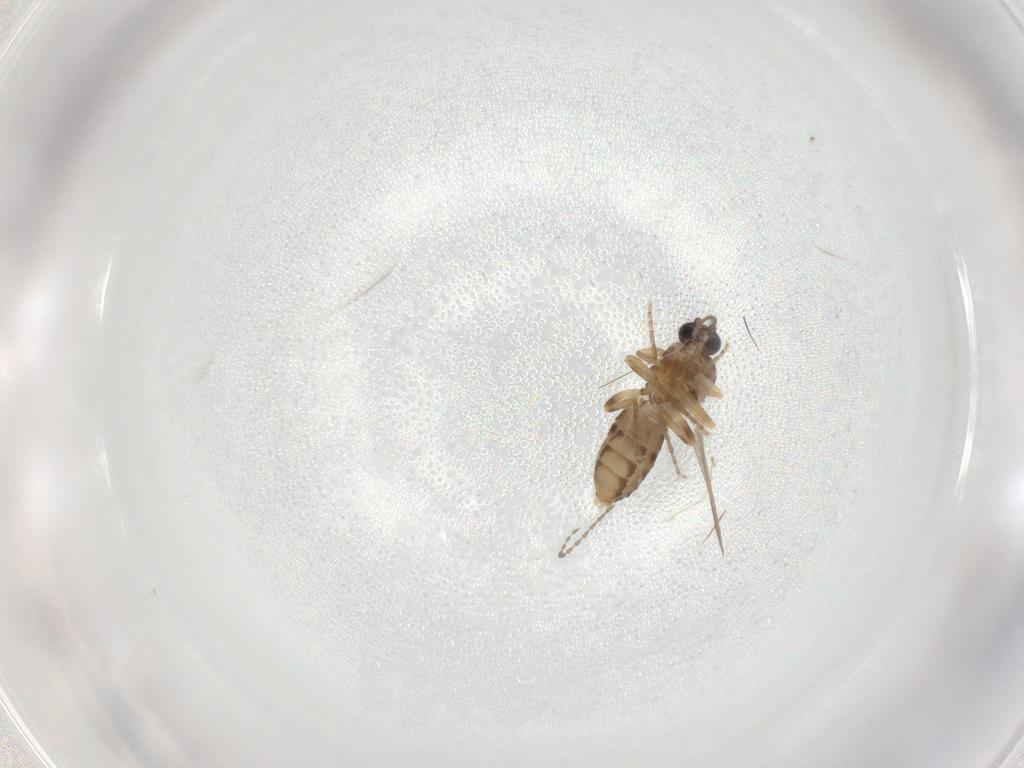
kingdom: Animalia
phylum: Arthropoda
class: Insecta
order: Diptera
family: Ceratopogonidae
